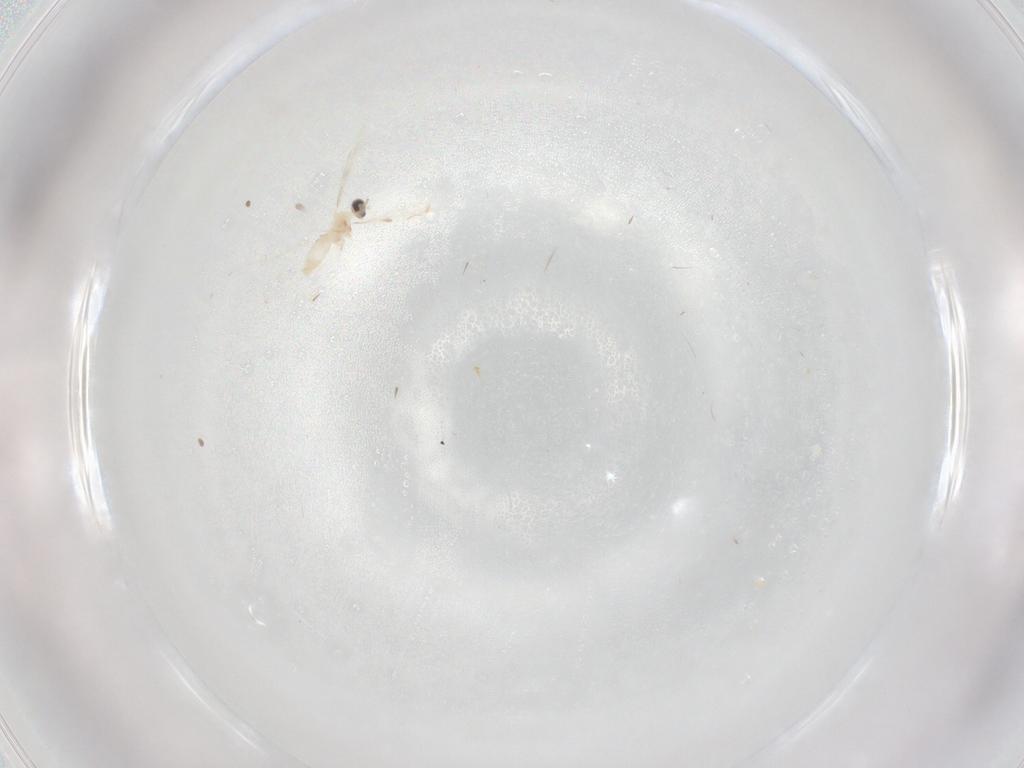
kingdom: Animalia
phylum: Arthropoda
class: Insecta
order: Diptera
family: Cecidomyiidae
